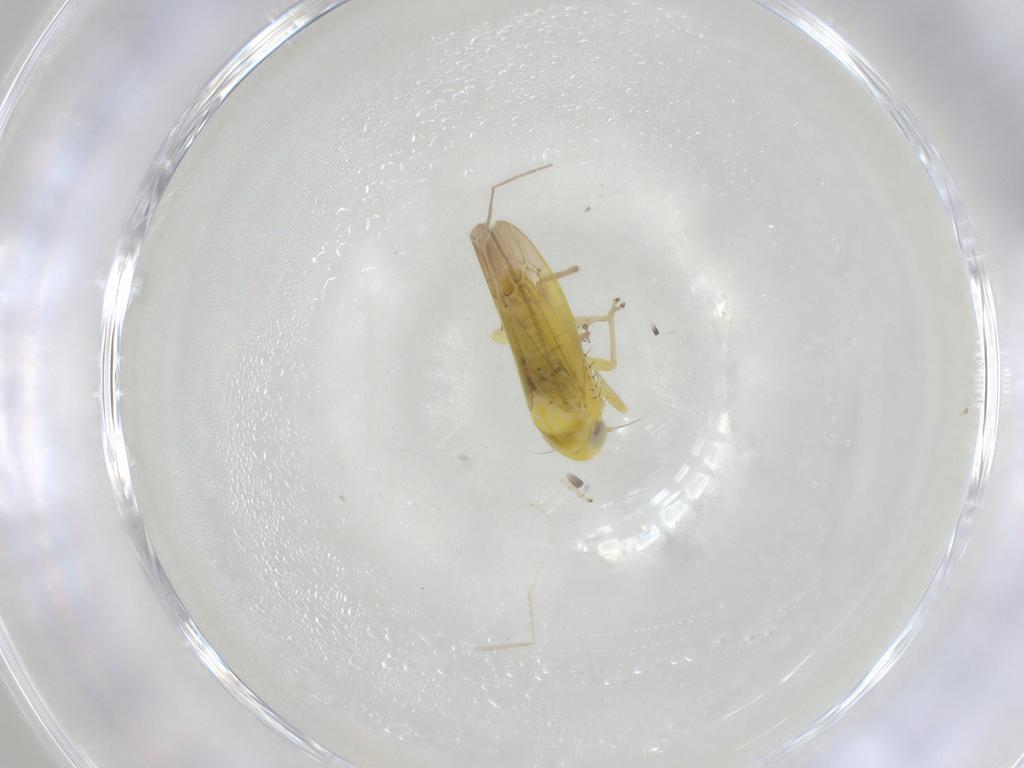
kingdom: Animalia
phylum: Arthropoda
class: Insecta
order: Hemiptera
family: Cicadellidae
